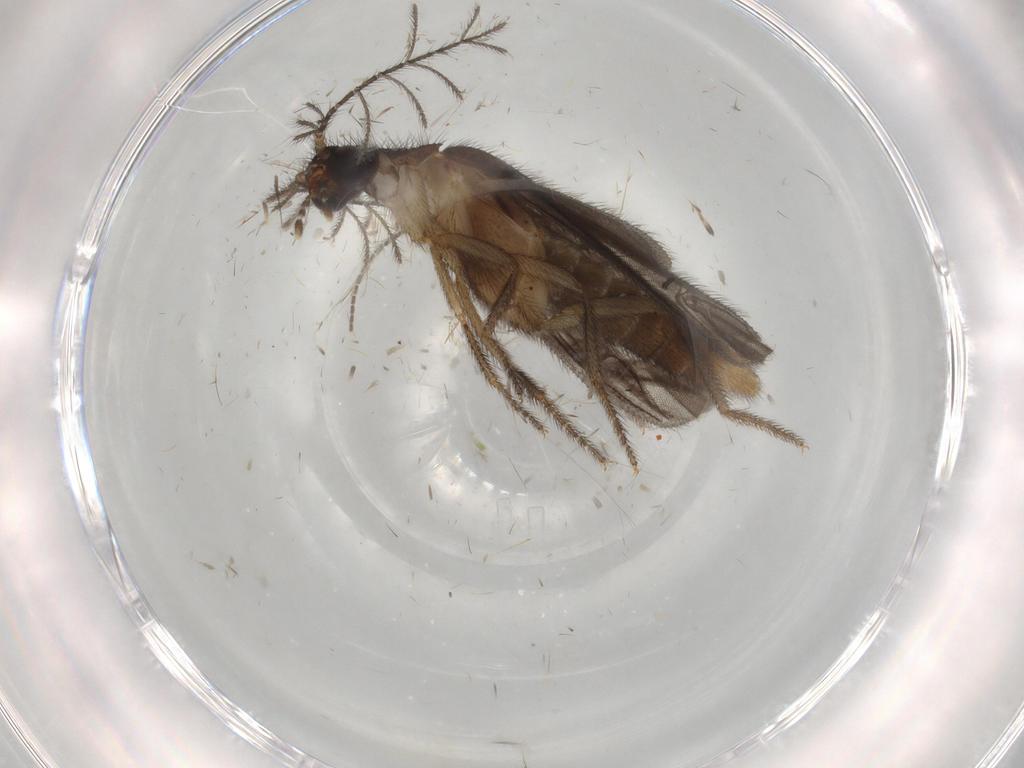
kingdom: Animalia
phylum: Arthropoda
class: Insecta
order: Coleoptera
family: Chrysomelidae
